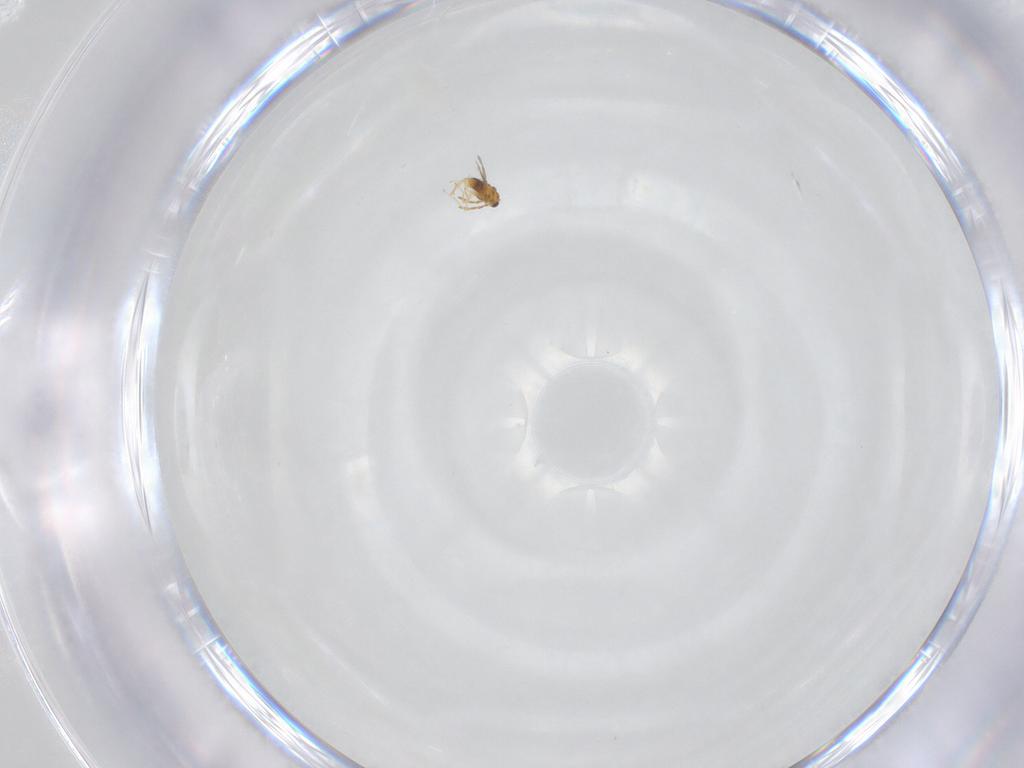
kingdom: Animalia
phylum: Arthropoda
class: Insecta
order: Hymenoptera
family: Aphelinidae
